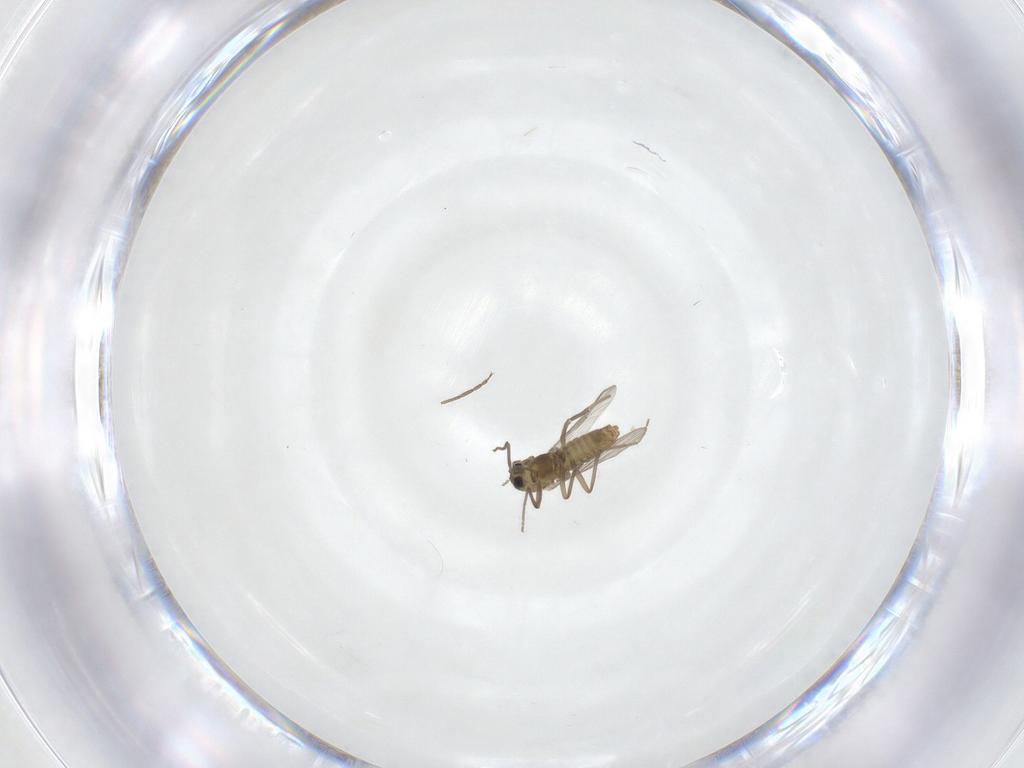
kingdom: Animalia
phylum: Arthropoda
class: Insecta
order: Diptera
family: Chironomidae
